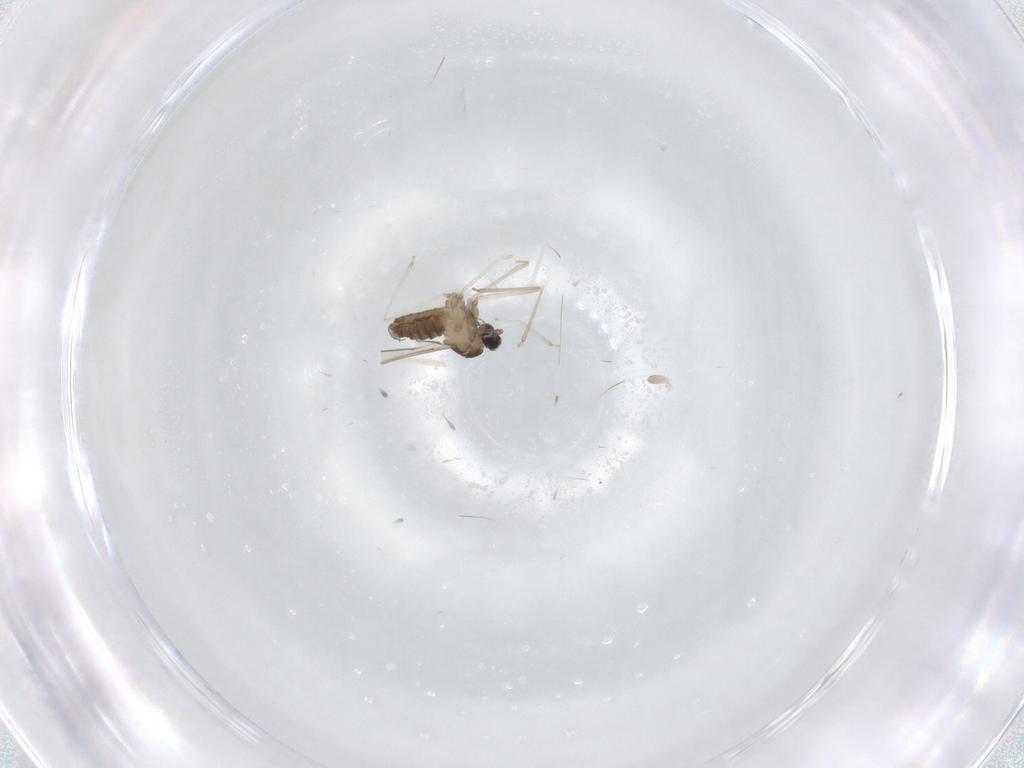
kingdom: Animalia
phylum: Arthropoda
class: Insecta
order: Diptera
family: Cecidomyiidae
